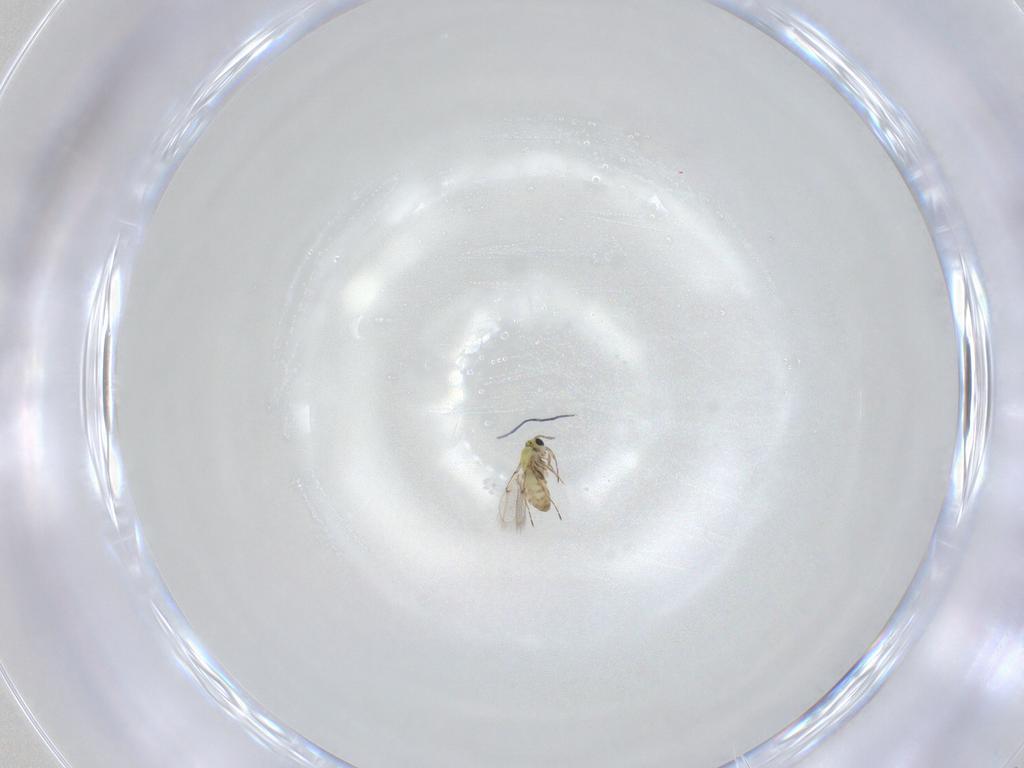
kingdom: Animalia
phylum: Arthropoda
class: Insecta
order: Hymenoptera
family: Trichogrammatidae
